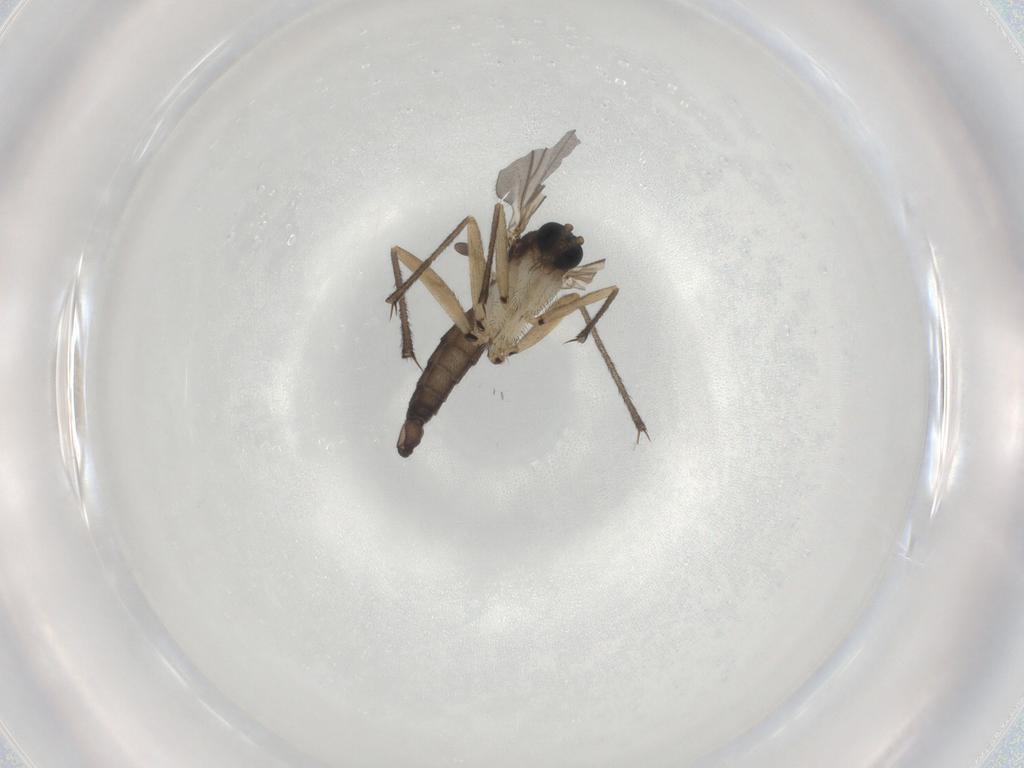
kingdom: Animalia
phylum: Arthropoda
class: Insecta
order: Diptera
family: Sciaridae
